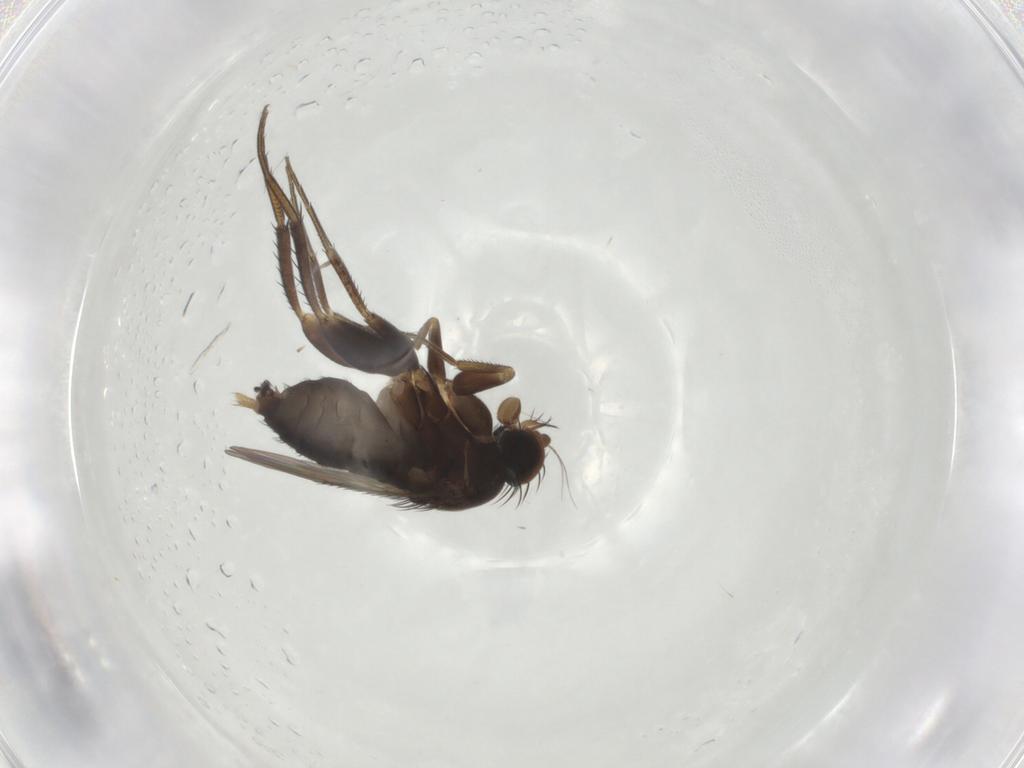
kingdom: Animalia
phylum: Arthropoda
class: Insecta
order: Diptera
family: Phoridae
